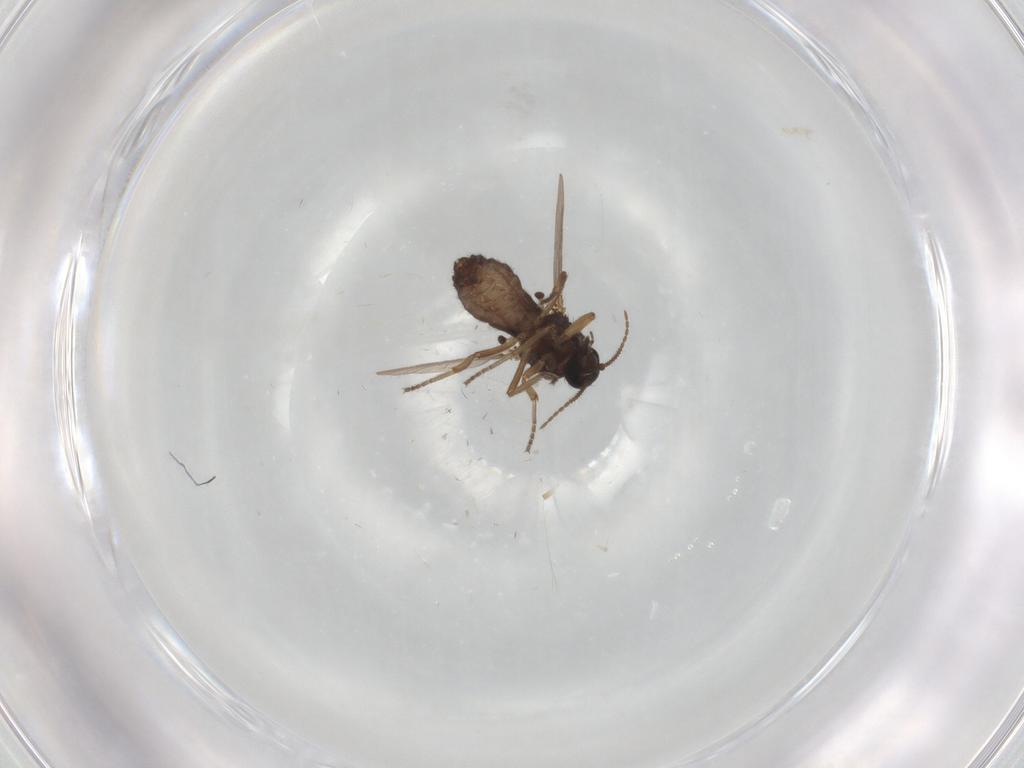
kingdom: Animalia
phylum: Arthropoda
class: Insecta
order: Diptera
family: Ceratopogonidae
